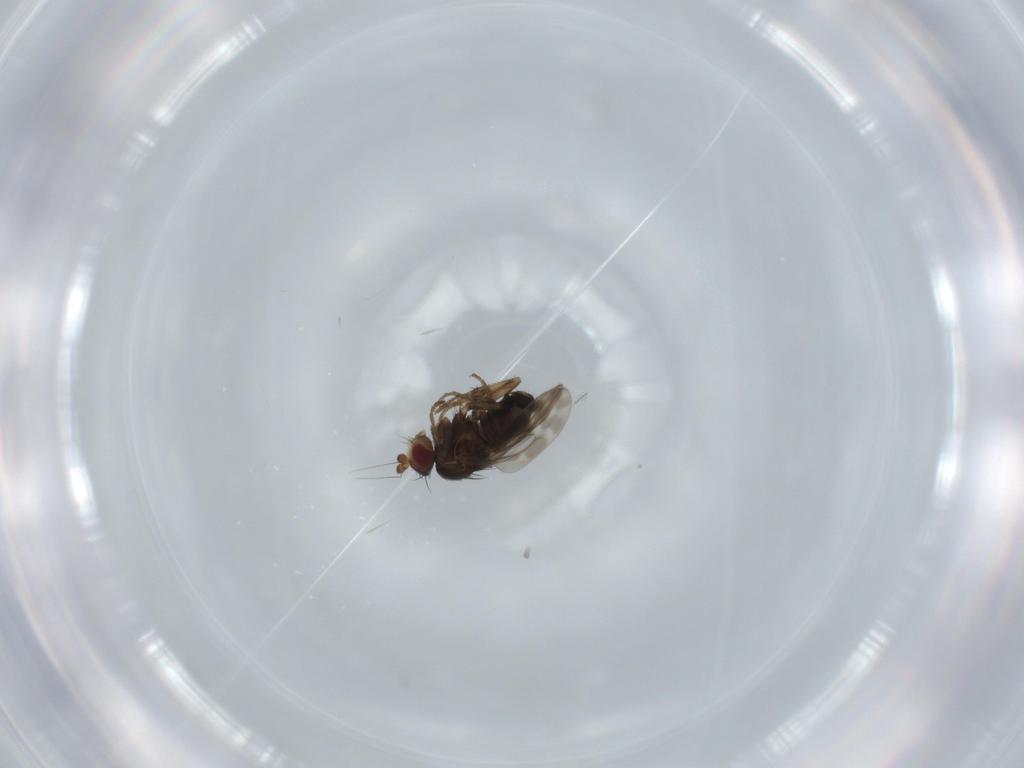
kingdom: Animalia
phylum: Arthropoda
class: Insecta
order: Diptera
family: Sphaeroceridae
